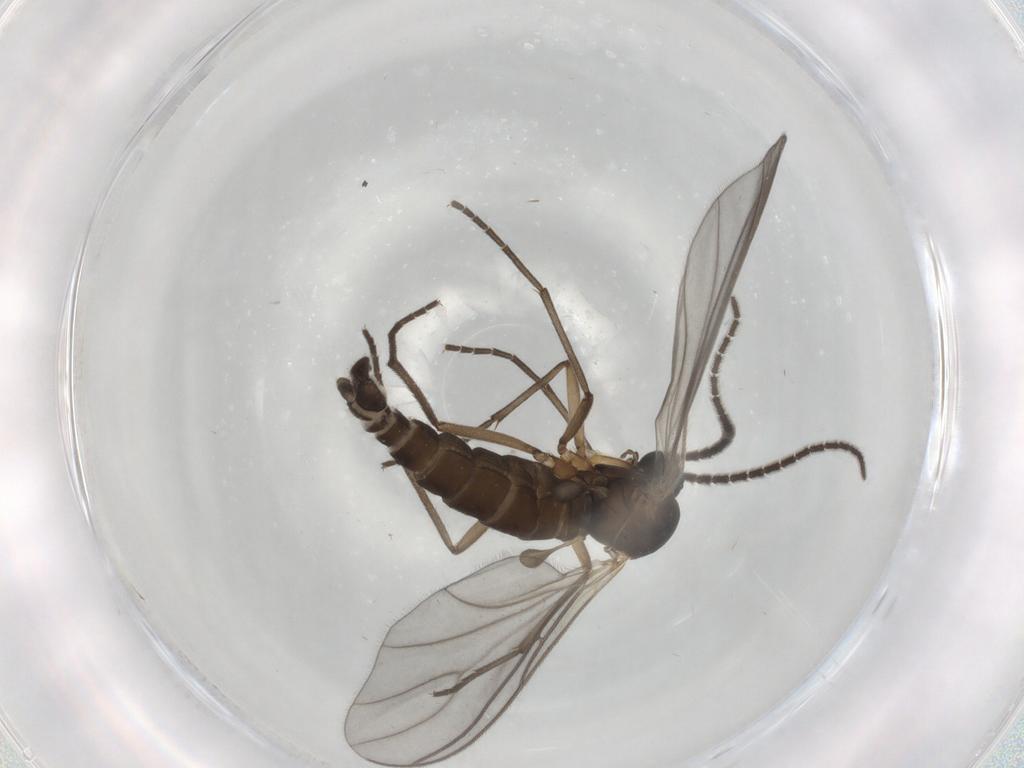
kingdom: Animalia
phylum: Arthropoda
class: Insecta
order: Diptera
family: Sciaridae
